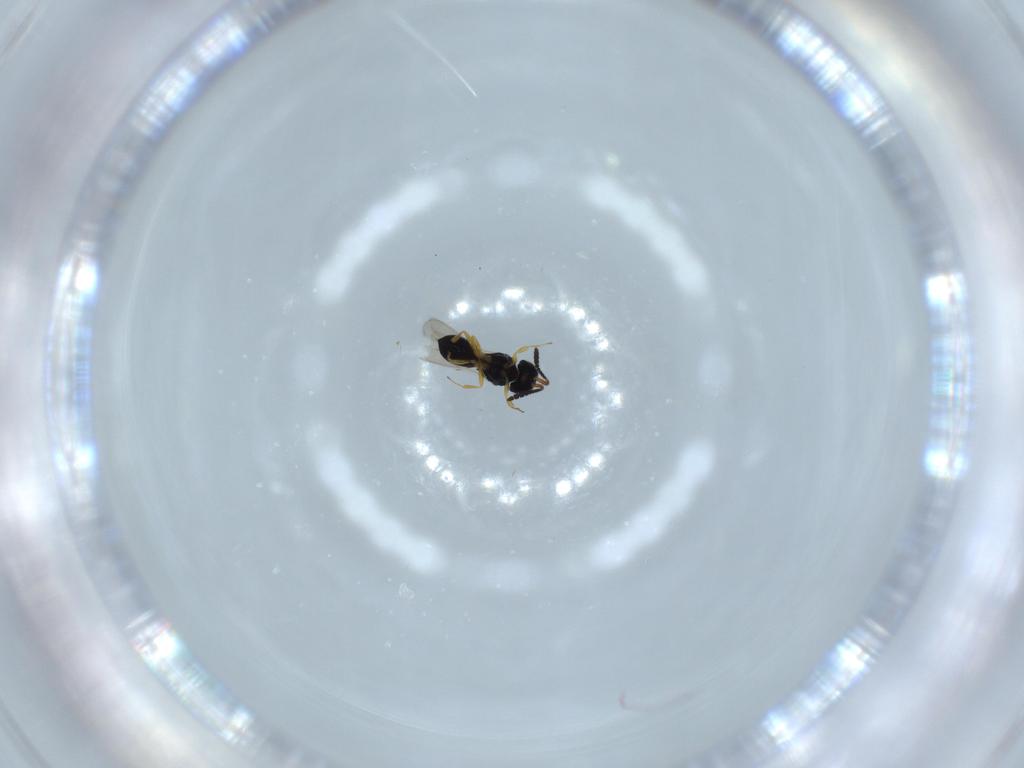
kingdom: Animalia
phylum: Arthropoda
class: Insecta
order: Hymenoptera
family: Scelionidae
